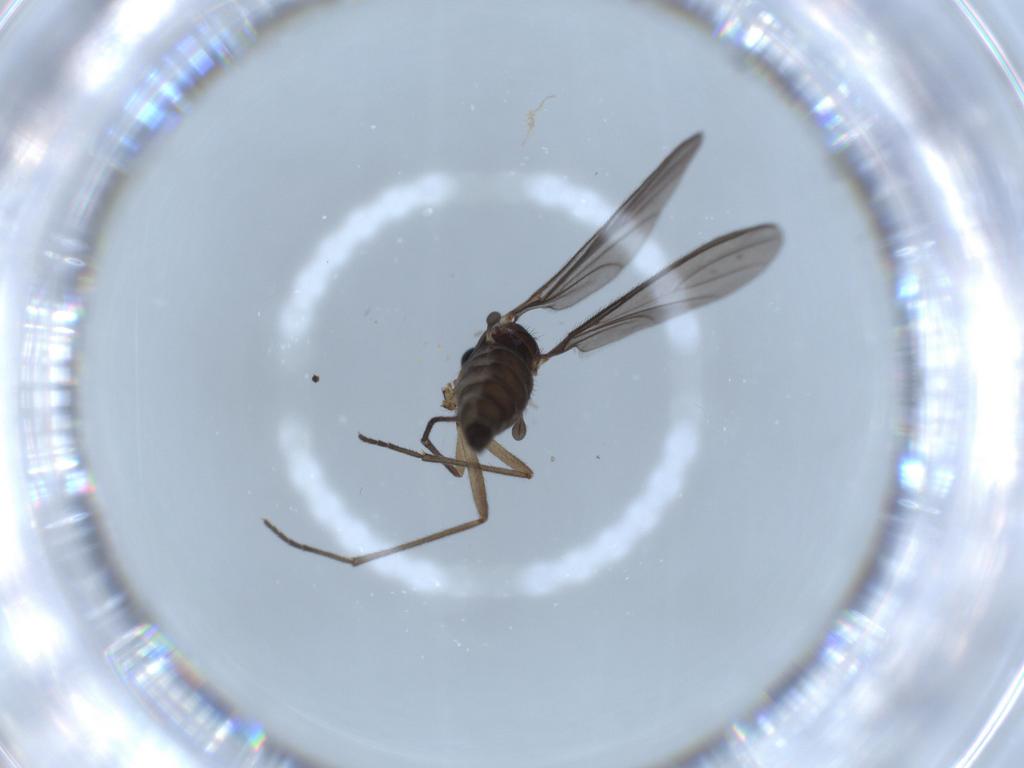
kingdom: Animalia
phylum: Arthropoda
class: Insecta
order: Diptera
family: Sciaridae
